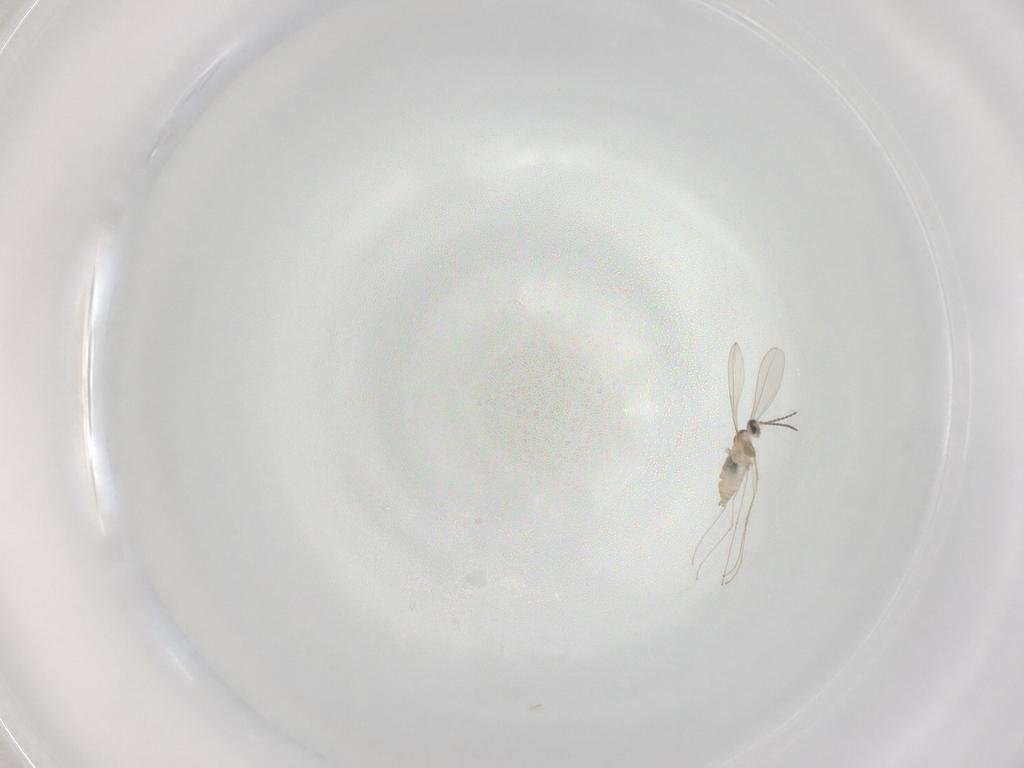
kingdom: Animalia
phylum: Arthropoda
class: Insecta
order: Diptera
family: Cecidomyiidae
